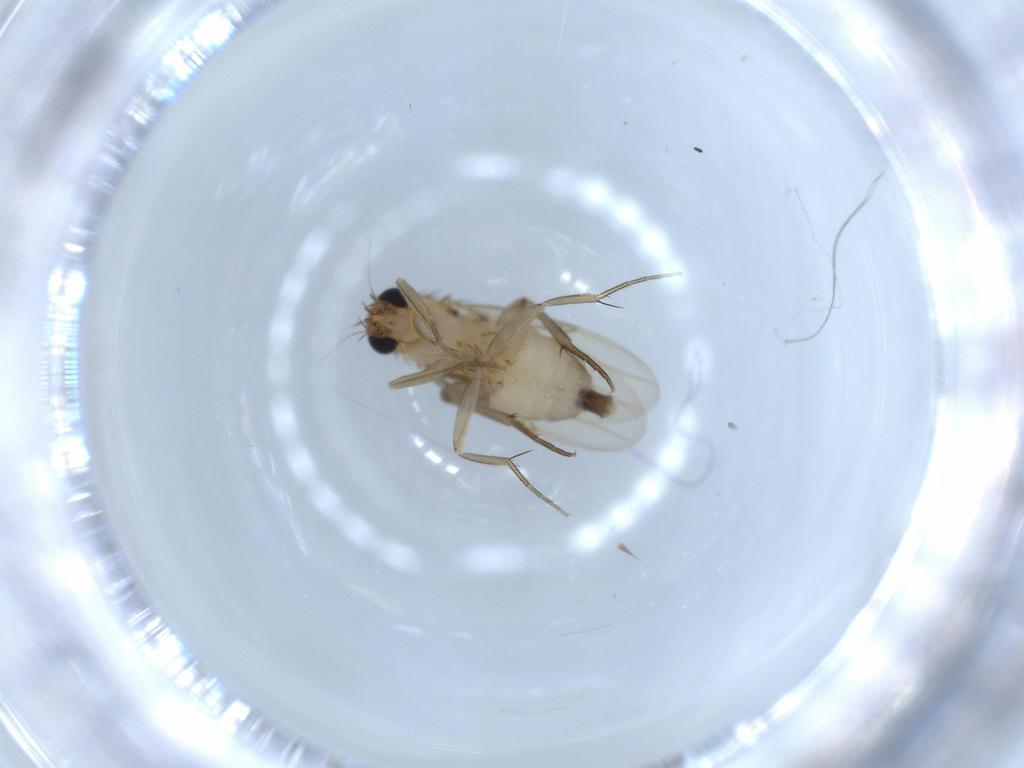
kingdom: Animalia
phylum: Arthropoda
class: Insecta
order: Diptera
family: Phoridae
